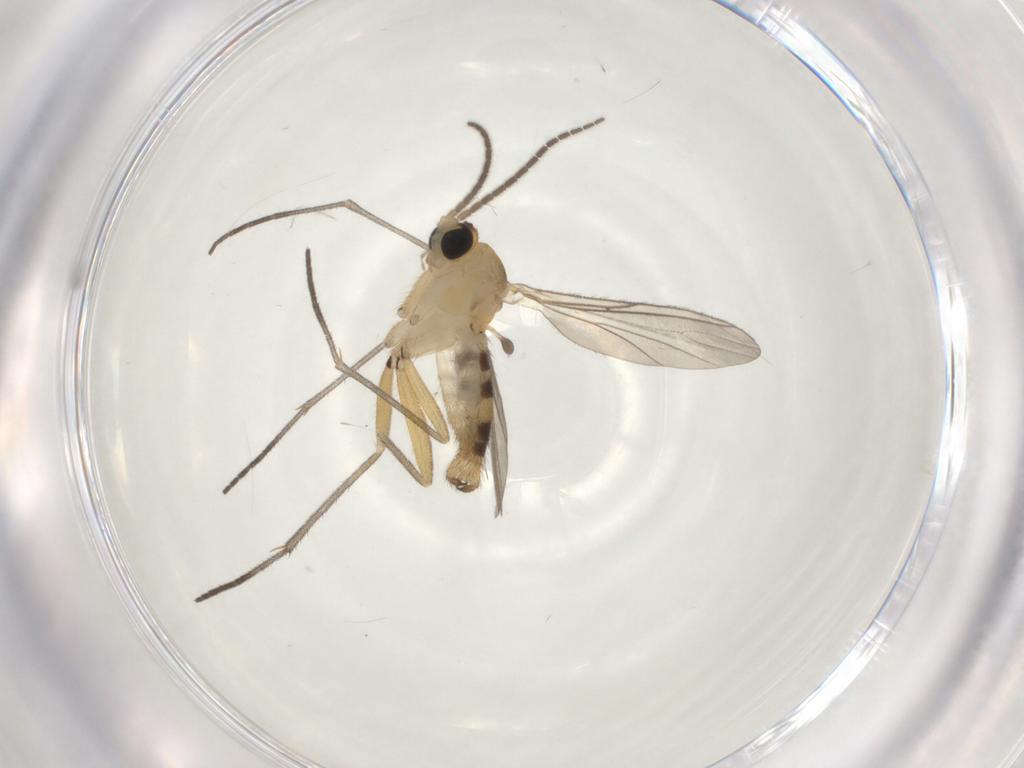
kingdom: Animalia
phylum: Arthropoda
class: Insecta
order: Diptera
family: Sciaridae
